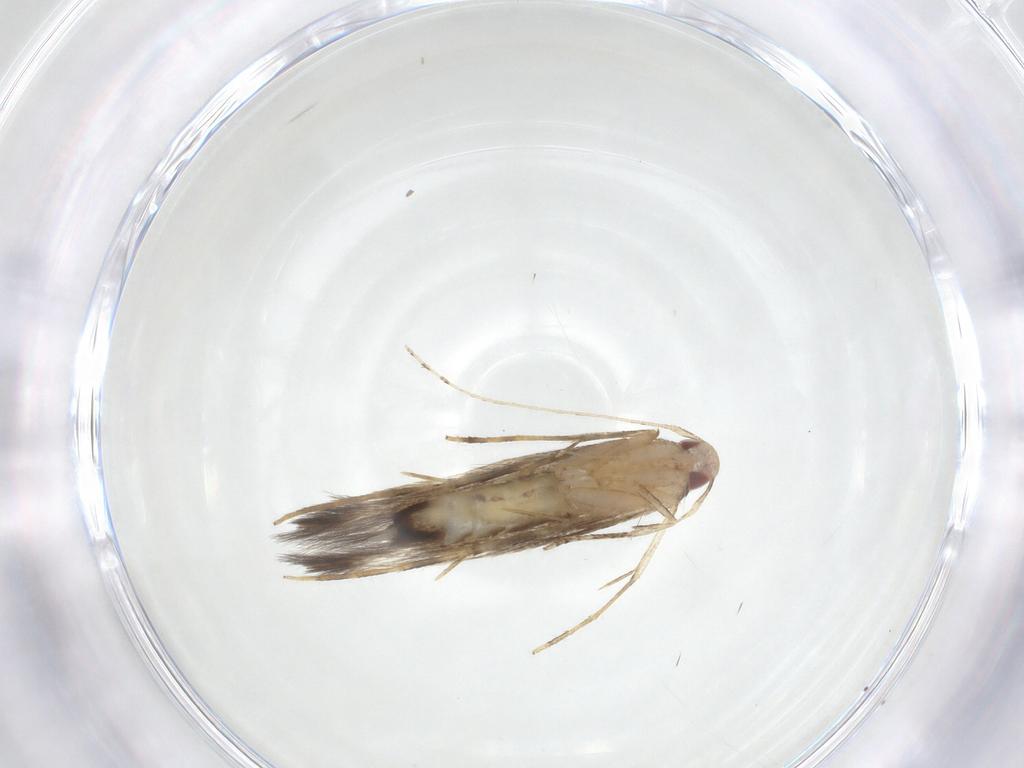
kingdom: Animalia
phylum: Arthropoda
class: Insecta
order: Lepidoptera
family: Cosmopterigidae
